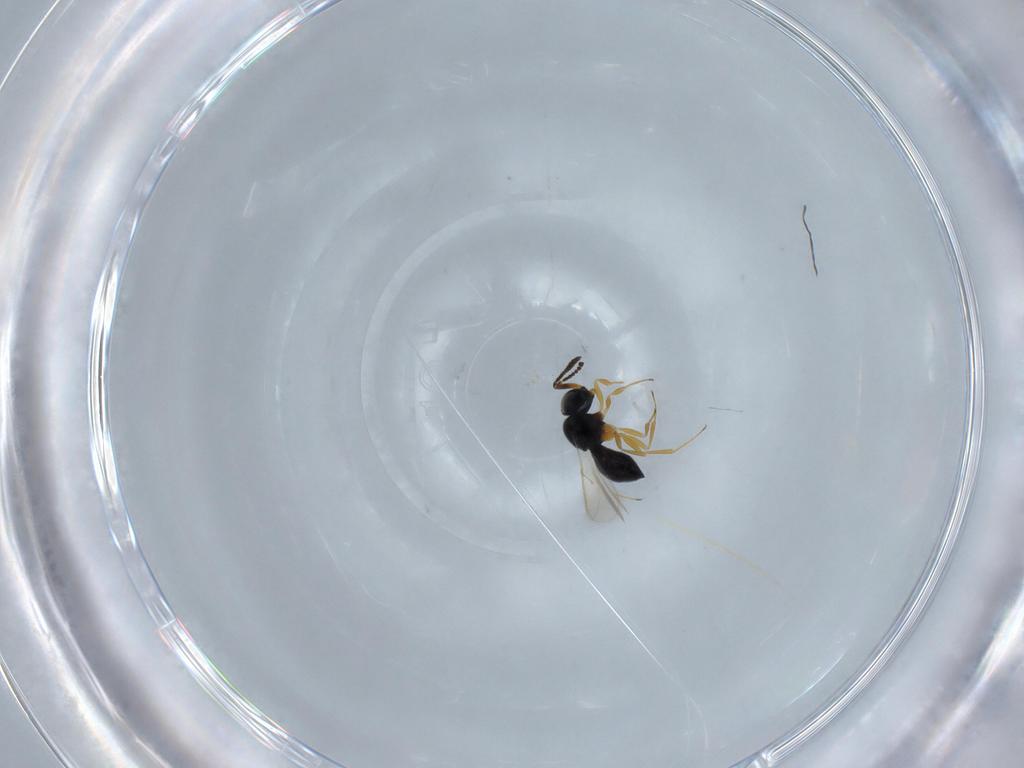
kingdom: Animalia
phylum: Arthropoda
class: Insecta
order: Hymenoptera
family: Scelionidae
